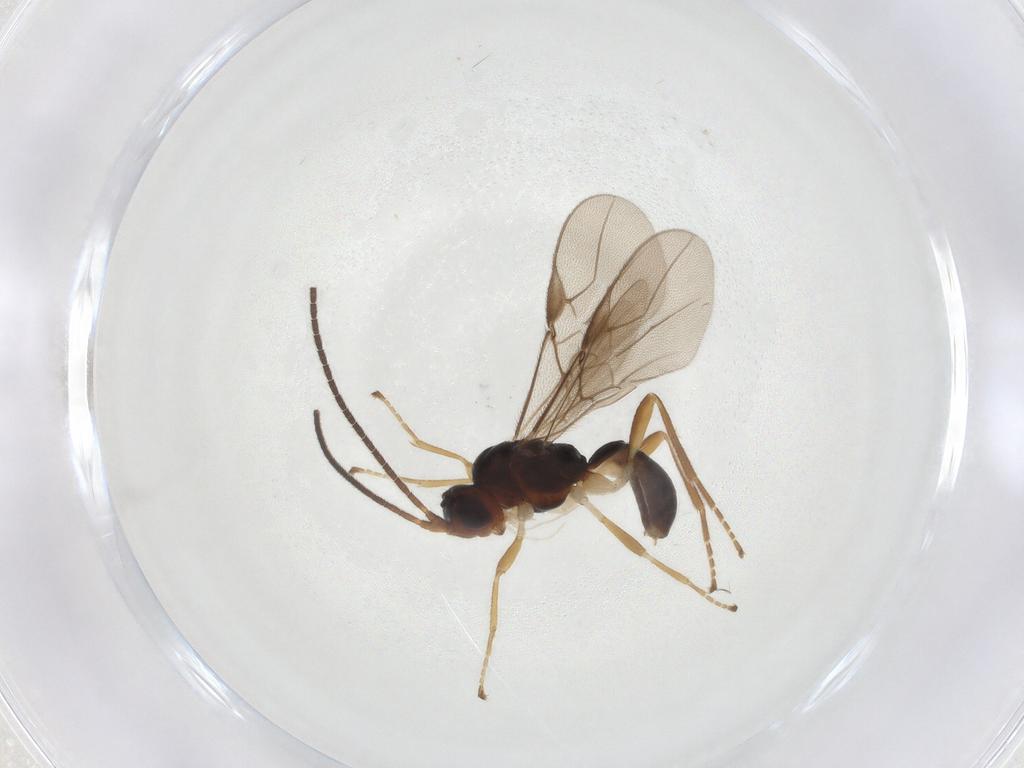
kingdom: Animalia
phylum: Arthropoda
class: Insecta
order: Hymenoptera
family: Braconidae
